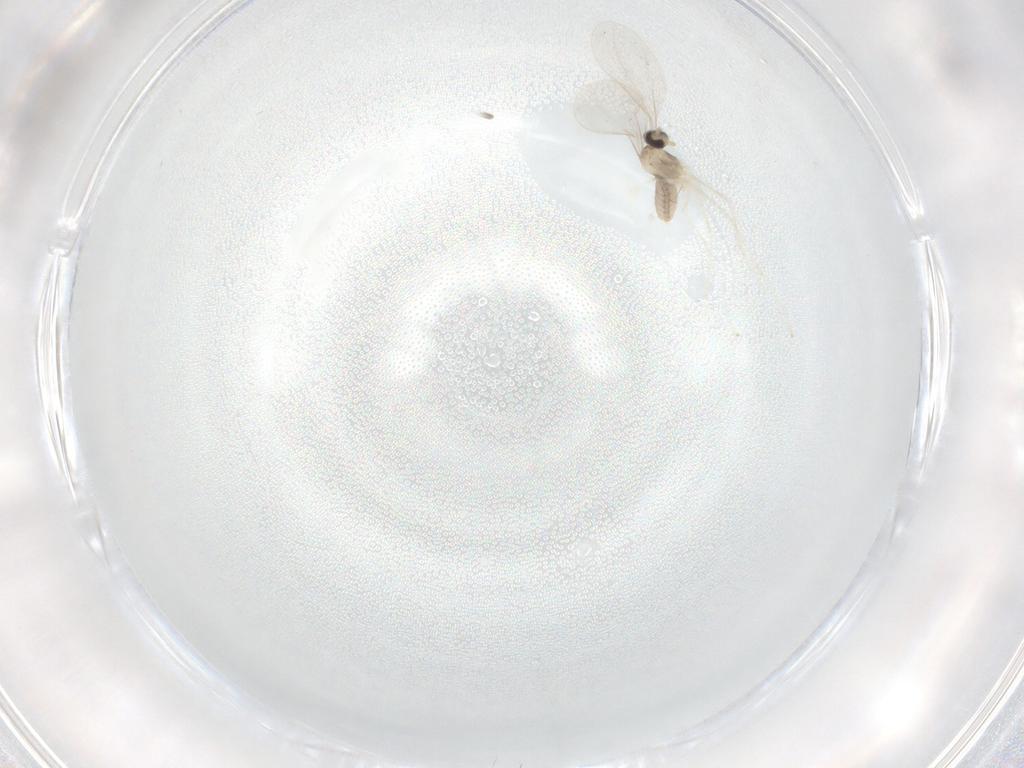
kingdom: Animalia
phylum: Arthropoda
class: Insecta
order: Diptera
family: Cecidomyiidae
